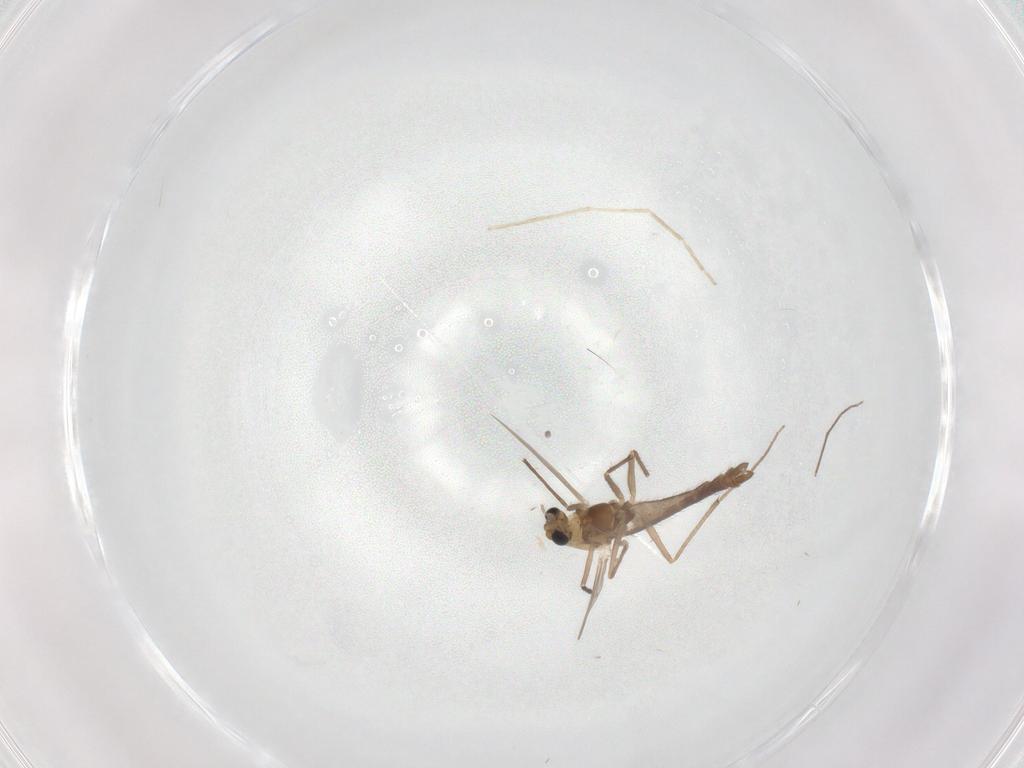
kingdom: Animalia
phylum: Arthropoda
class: Insecta
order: Diptera
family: Chironomidae
